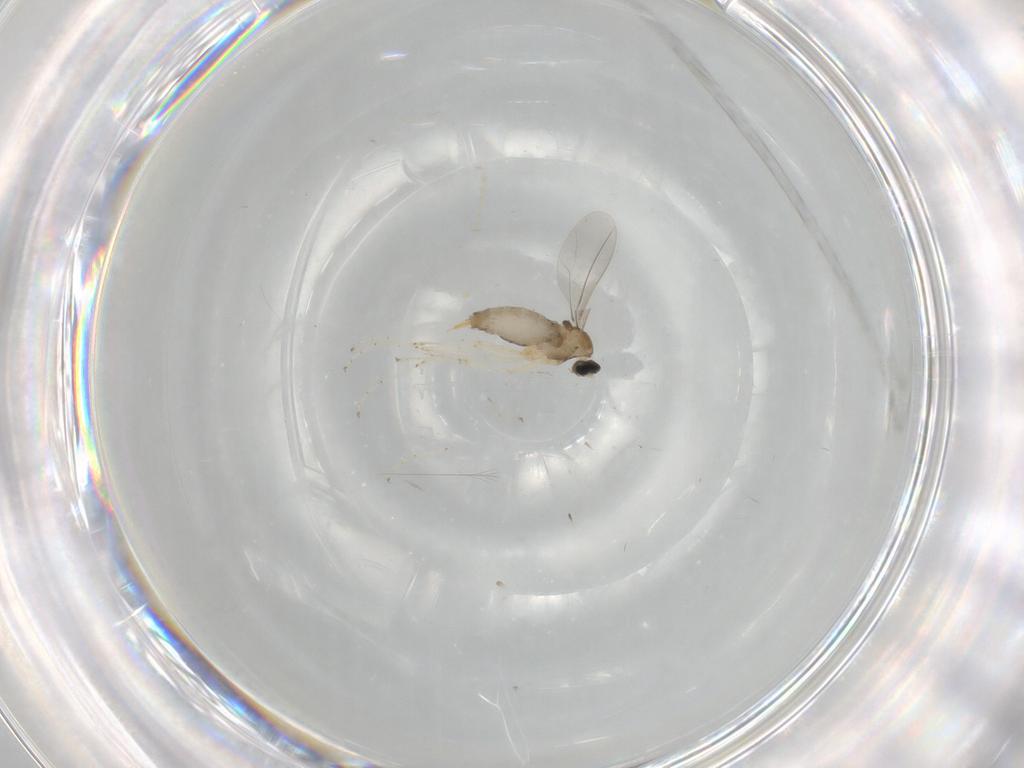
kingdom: Animalia
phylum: Arthropoda
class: Insecta
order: Diptera
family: Cecidomyiidae
